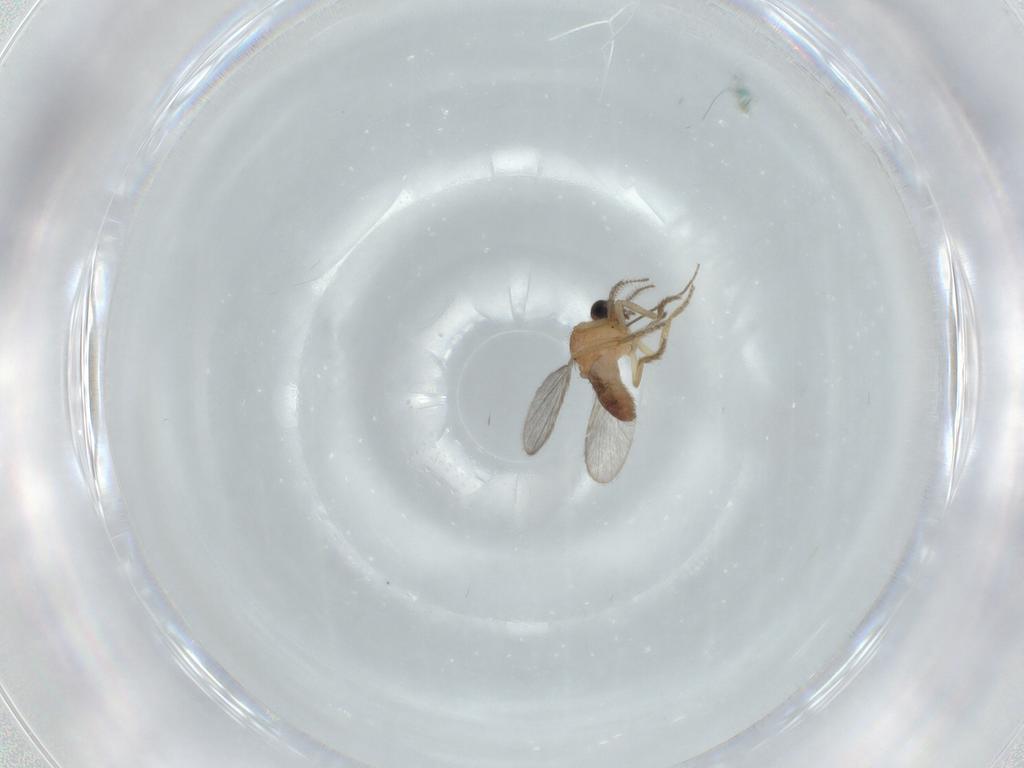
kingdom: Animalia
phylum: Arthropoda
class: Insecta
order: Diptera
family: Ceratopogonidae
